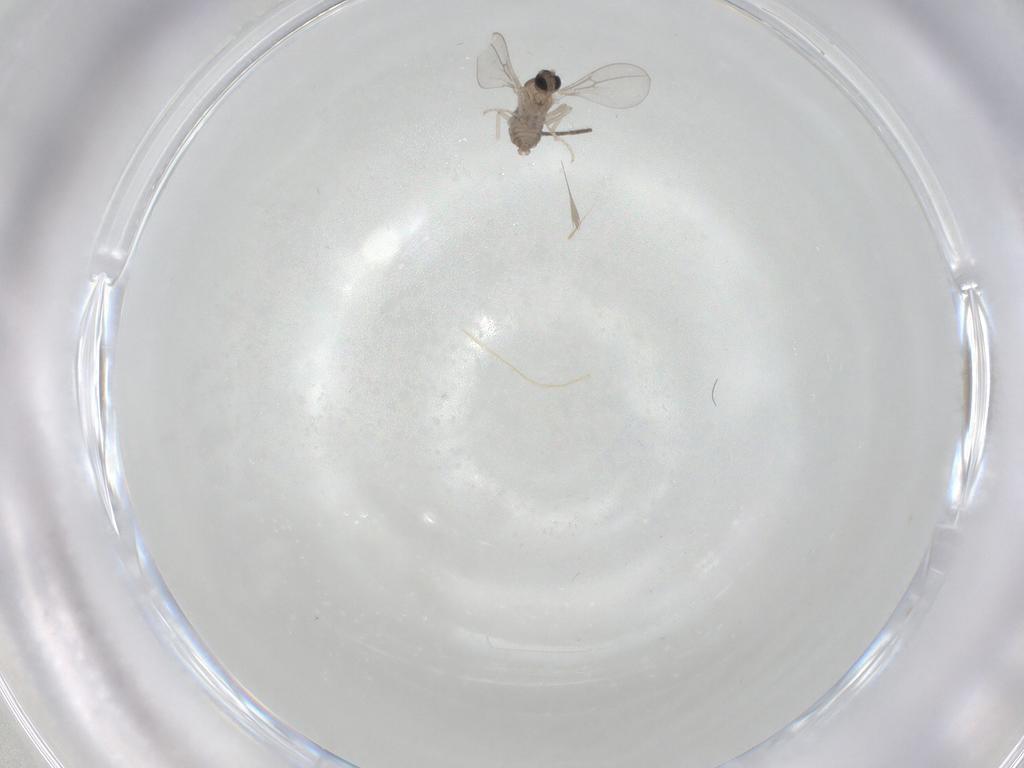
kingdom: Animalia
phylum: Arthropoda
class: Insecta
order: Diptera
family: Cecidomyiidae
